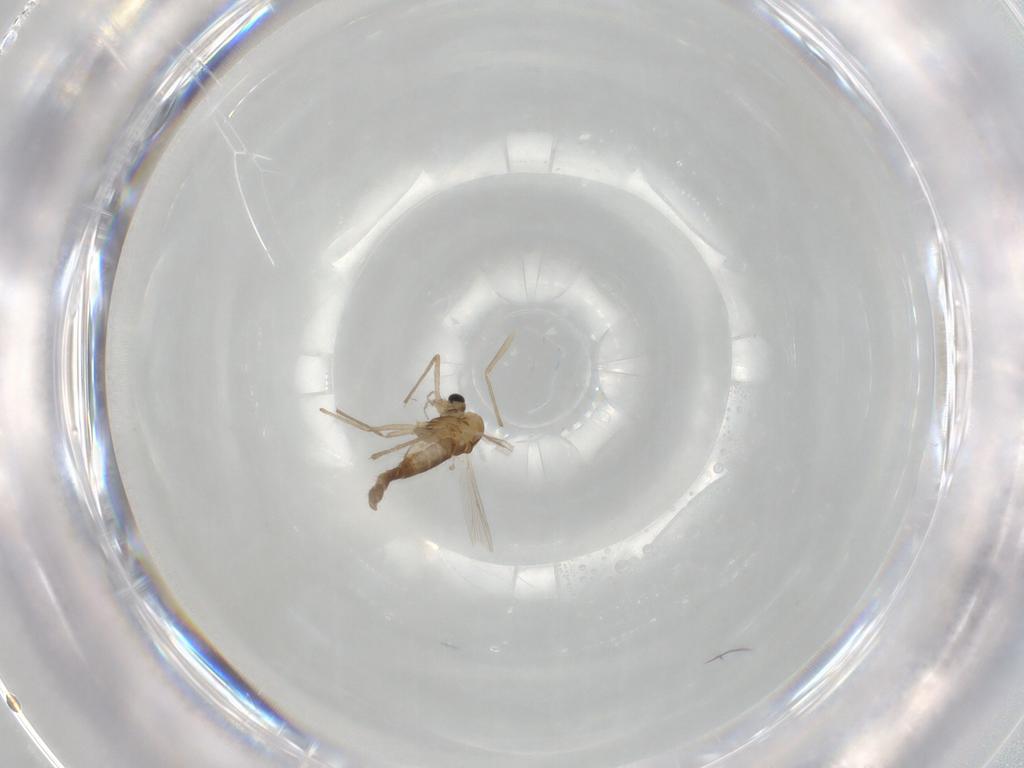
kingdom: Animalia
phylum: Arthropoda
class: Insecta
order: Diptera
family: Chironomidae
